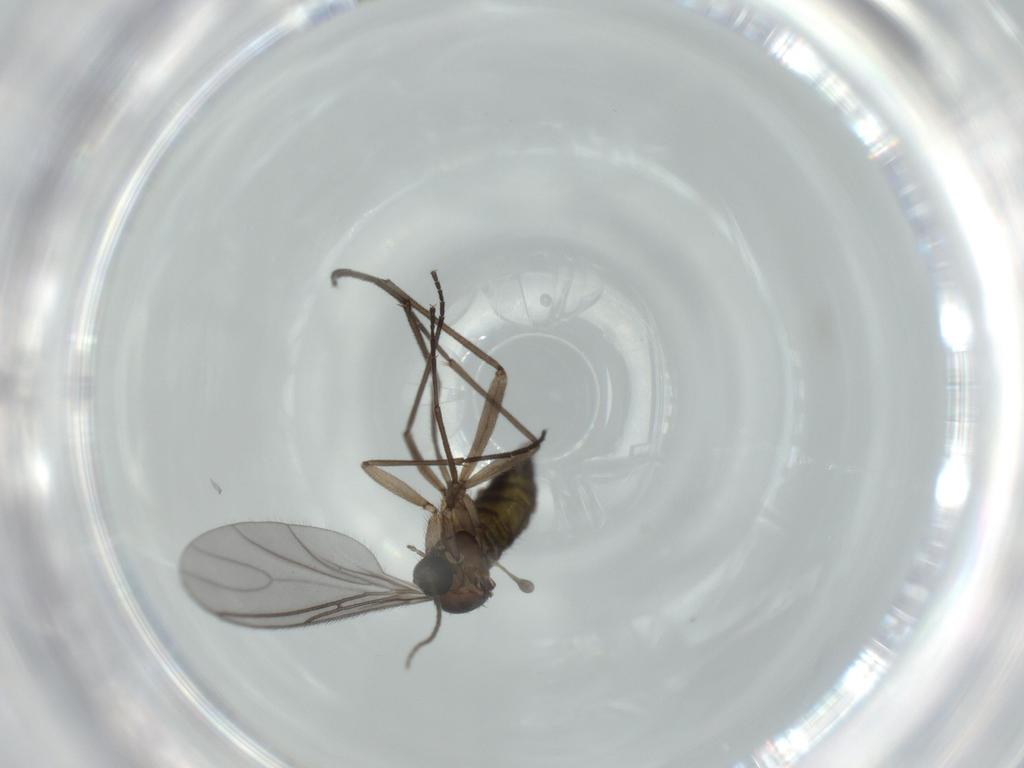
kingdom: Animalia
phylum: Arthropoda
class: Insecta
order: Diptera
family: Sciaridae
